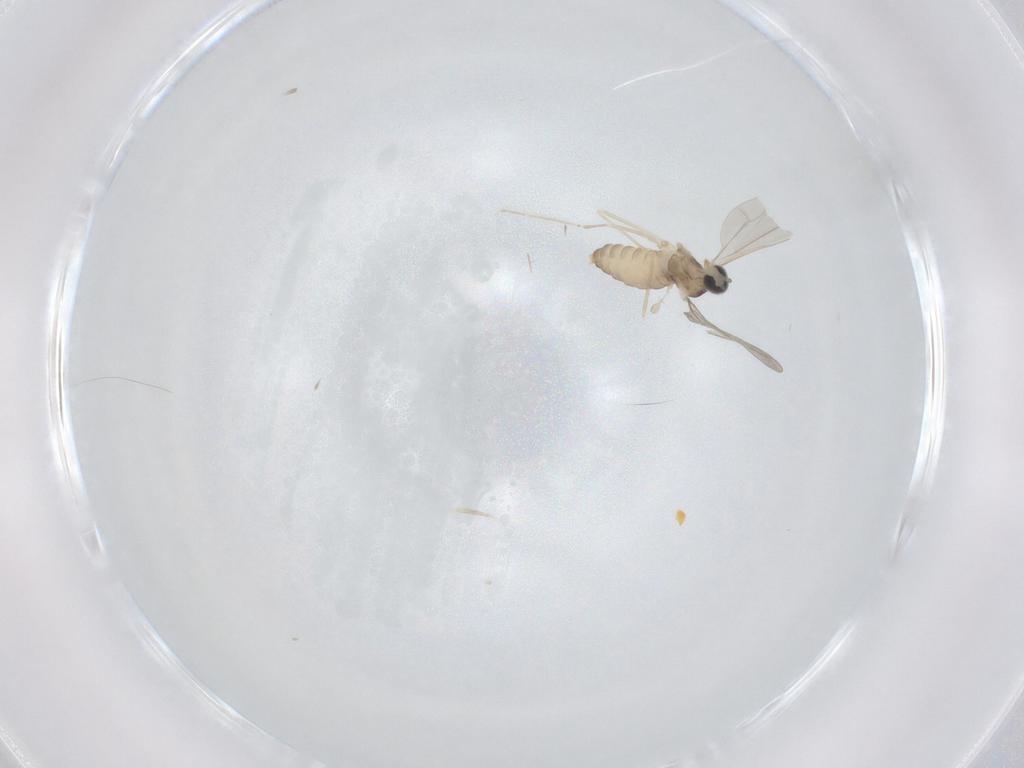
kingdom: Animalia
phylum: Arthropoda
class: Insecta
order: Diptera
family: Cecidomyiidae
